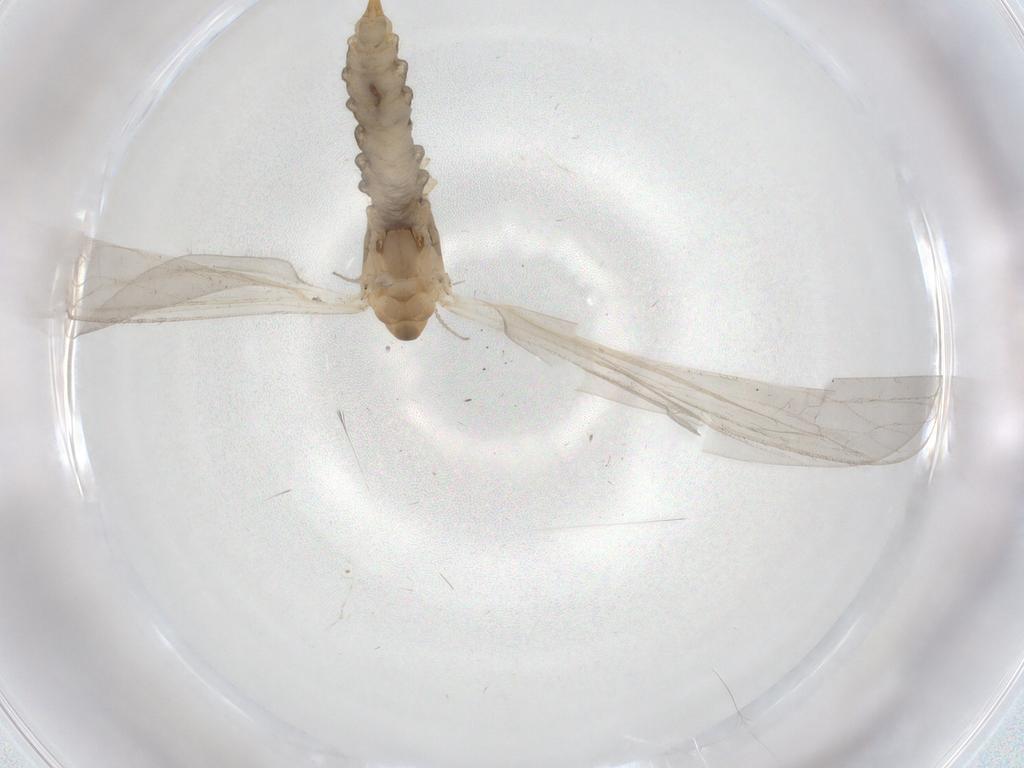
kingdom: Animalia
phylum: Arthropoda
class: Insecta
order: Diptera
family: Limoniidae
